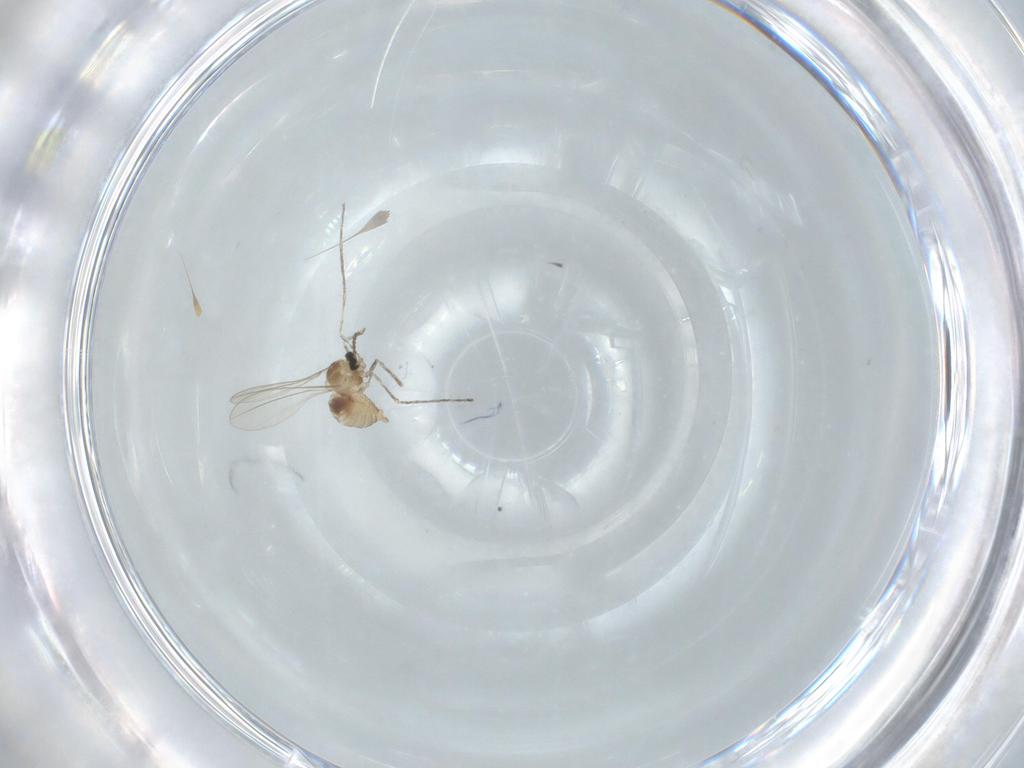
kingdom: Animalia
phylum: Arthropoda
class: Insecta
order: Diptera
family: Cecidomyiidae
